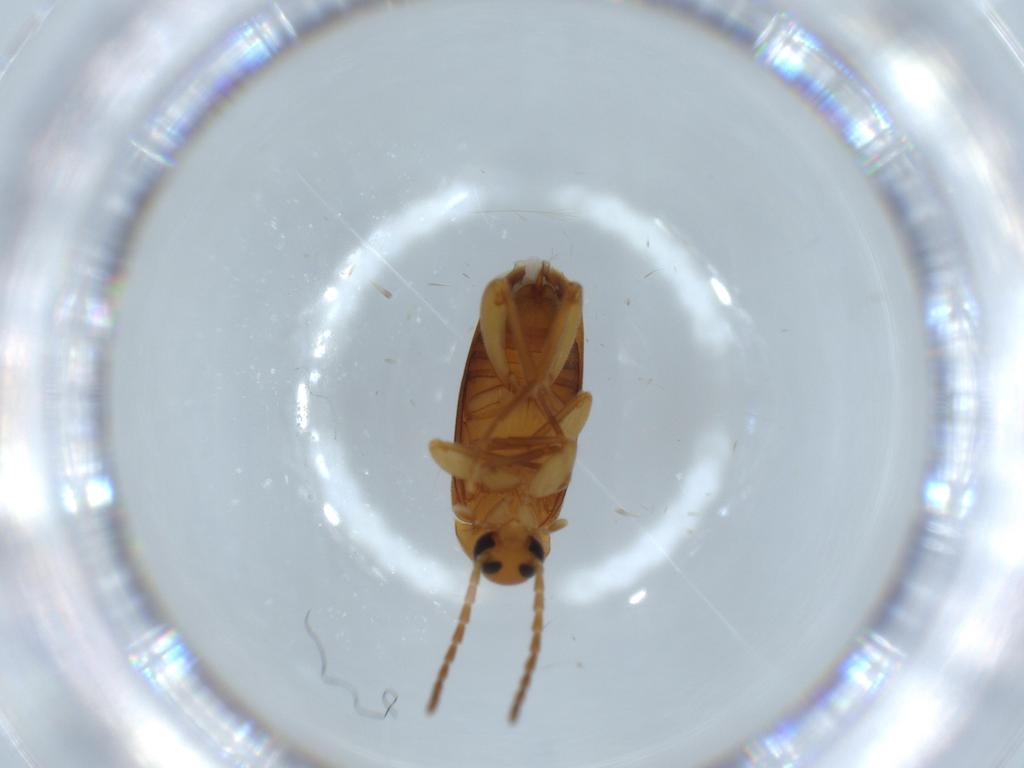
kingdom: Animalia
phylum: Arthropoda
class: Insecta
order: Coleoptera
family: Scraptiidae
